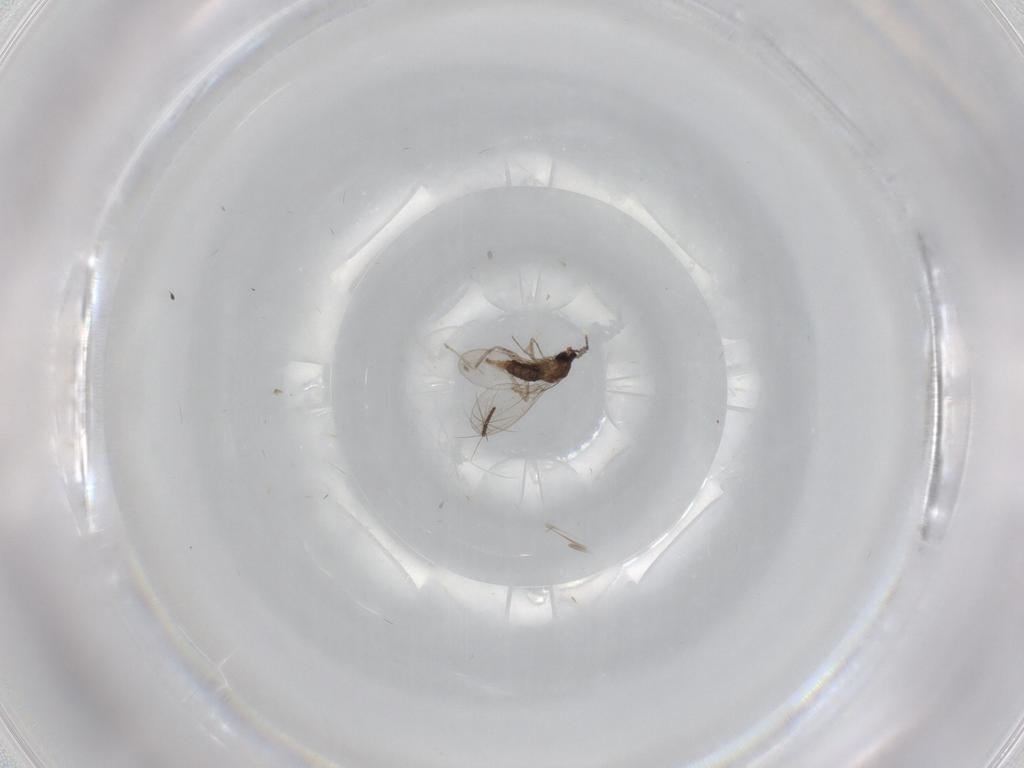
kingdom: Animalia
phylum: Arthropoda
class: Insecta
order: Diptera
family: Cecidomyiidae
